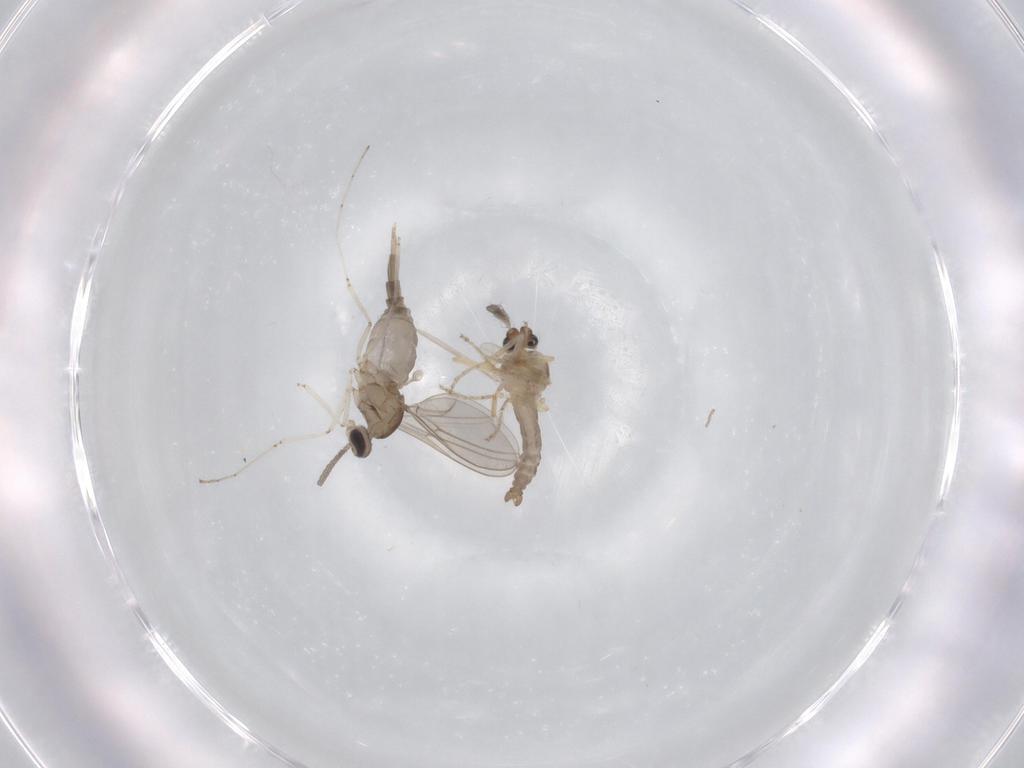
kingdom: Animalia
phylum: Arthropoda
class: Insecta
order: Diptera
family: Ceratopogonidae
